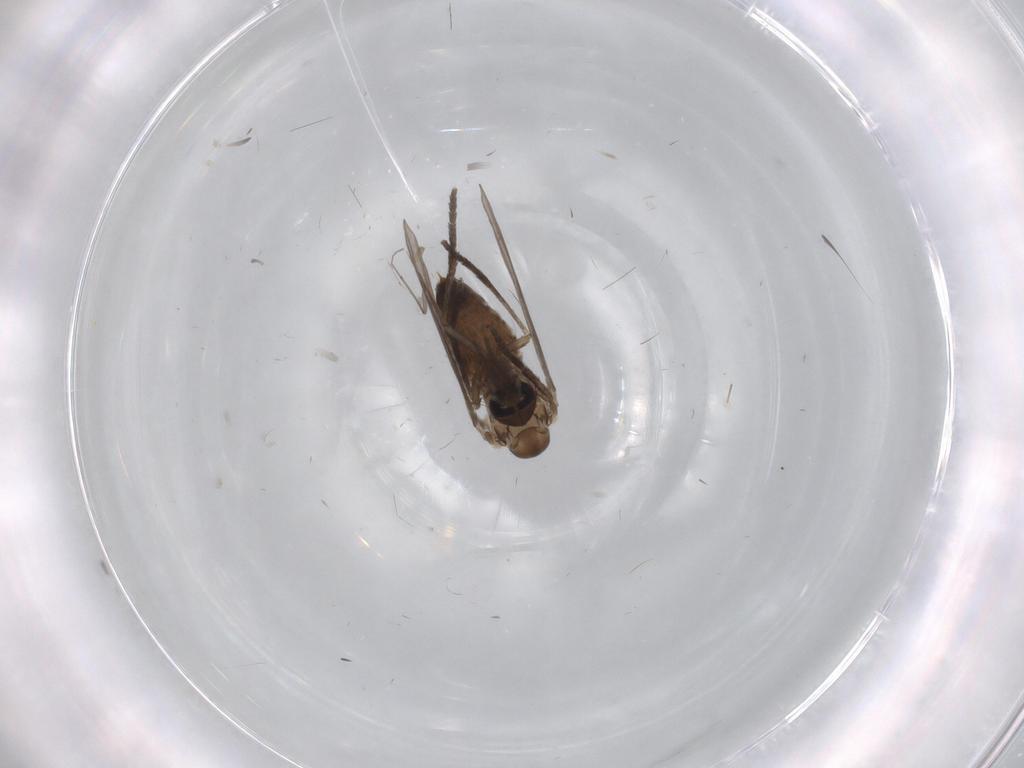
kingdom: Animalia
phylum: Arthropoda
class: Insecta
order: Diptera
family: Psychodidae
